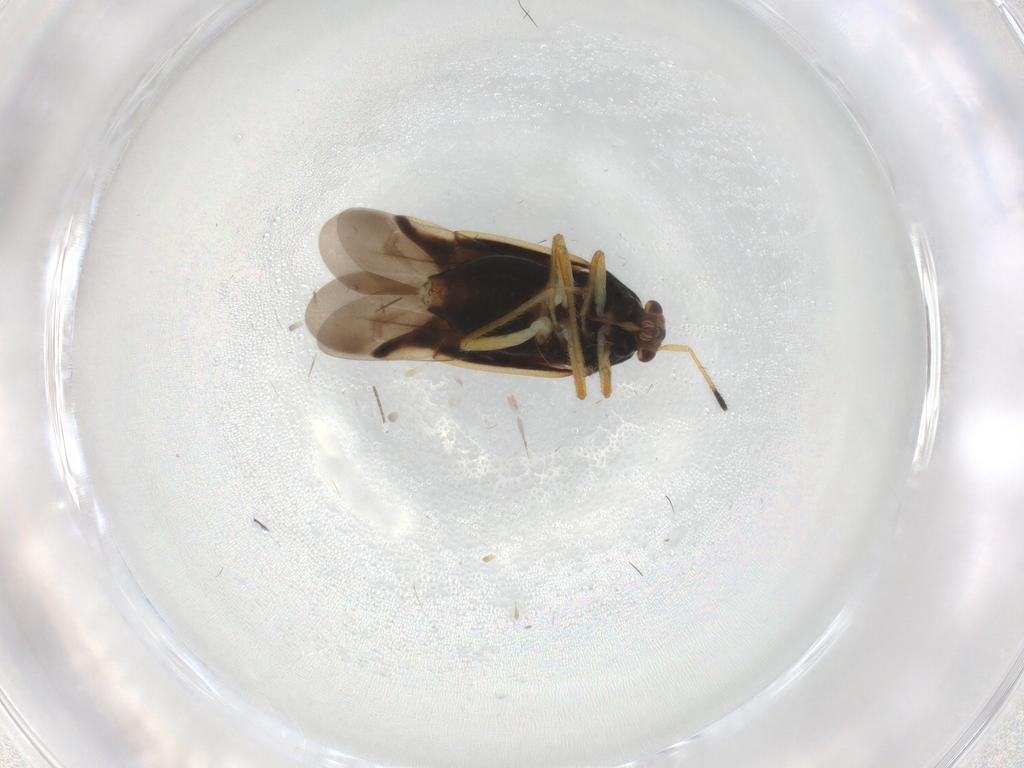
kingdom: Animalia
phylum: Arthropoda
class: Insecta
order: Hemiptera
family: Miridae
